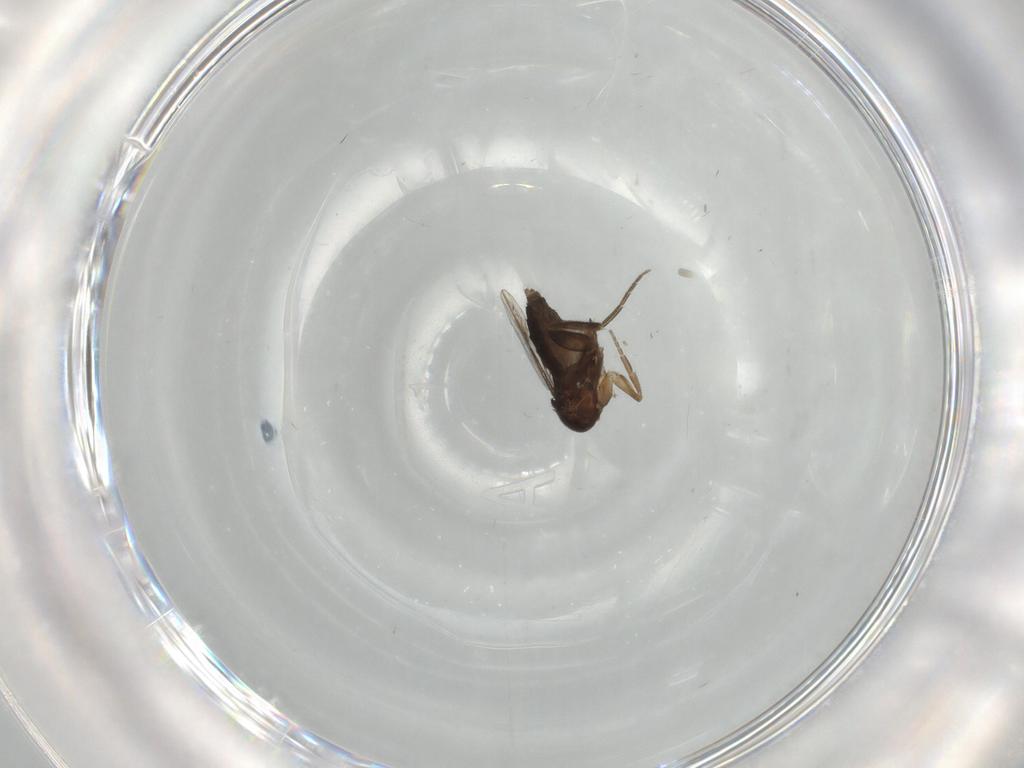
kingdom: Animalia
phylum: Arthropoda
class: Insecta
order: Diptera
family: Phoridae
